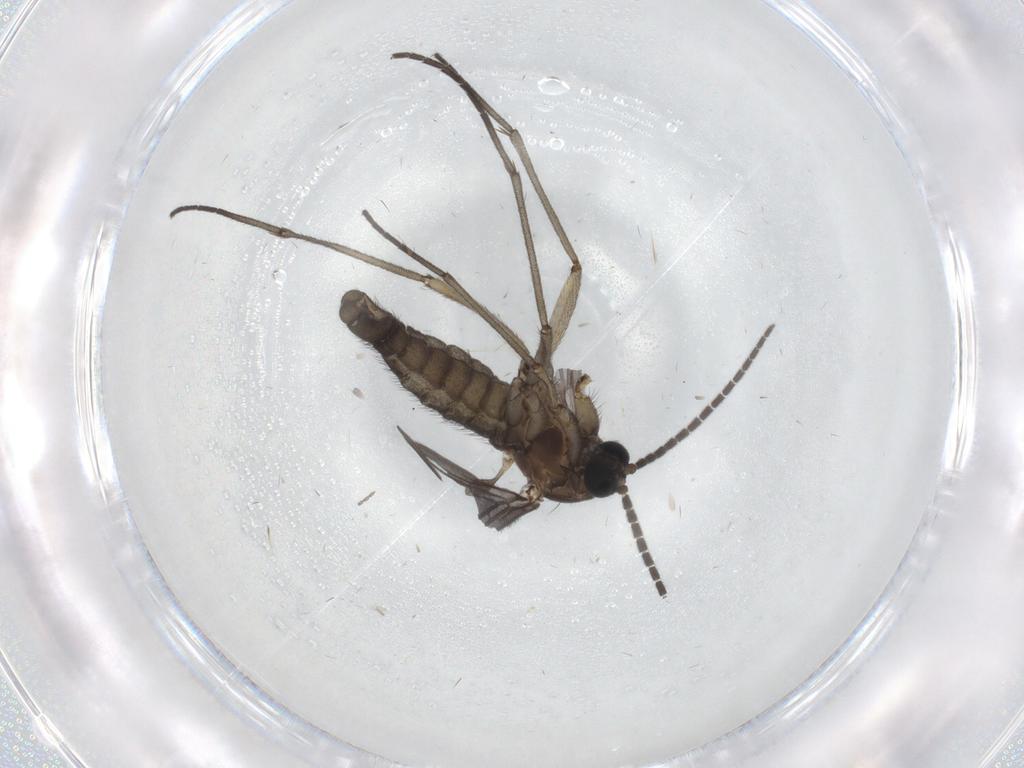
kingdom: Animalia
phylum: Arthropoda
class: Insecta
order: Diptera
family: Sciaridae
